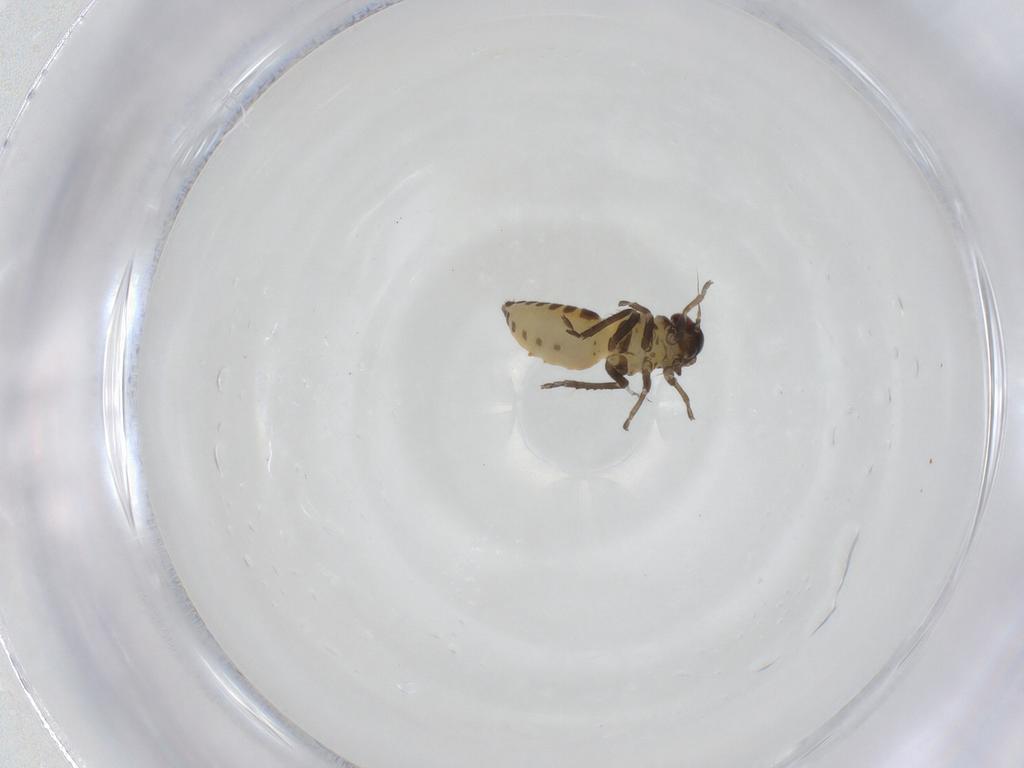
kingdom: Animalia
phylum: Arthropoda
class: Insecta
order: Hemiptera
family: Cicadellidae
